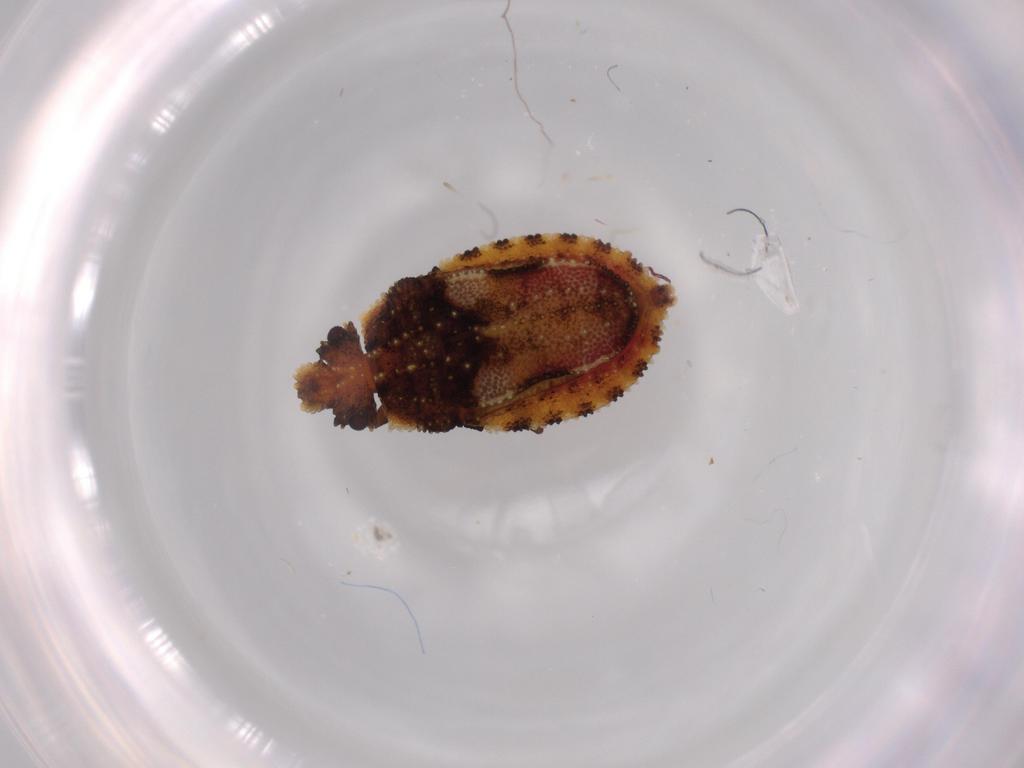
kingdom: Animalia
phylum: Arthropoda
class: Insecta
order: Hemiptera
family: Aradidae
